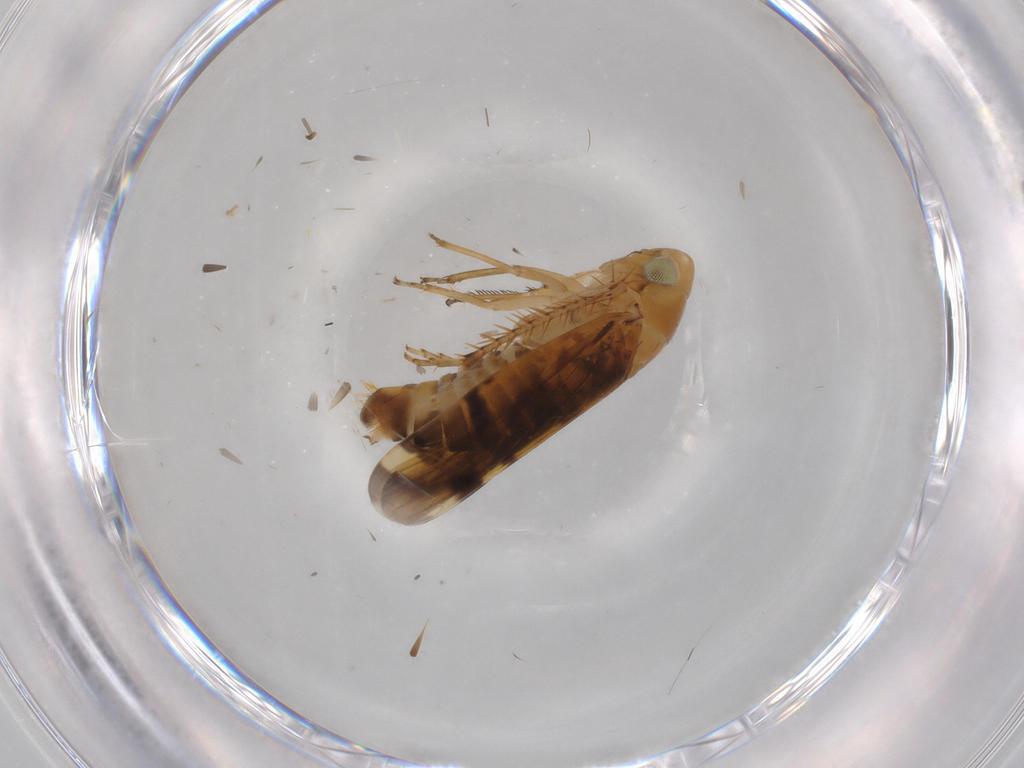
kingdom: Animalia
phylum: Arthropoda
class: Insecta
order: Hemiptera
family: Cicadellidae
